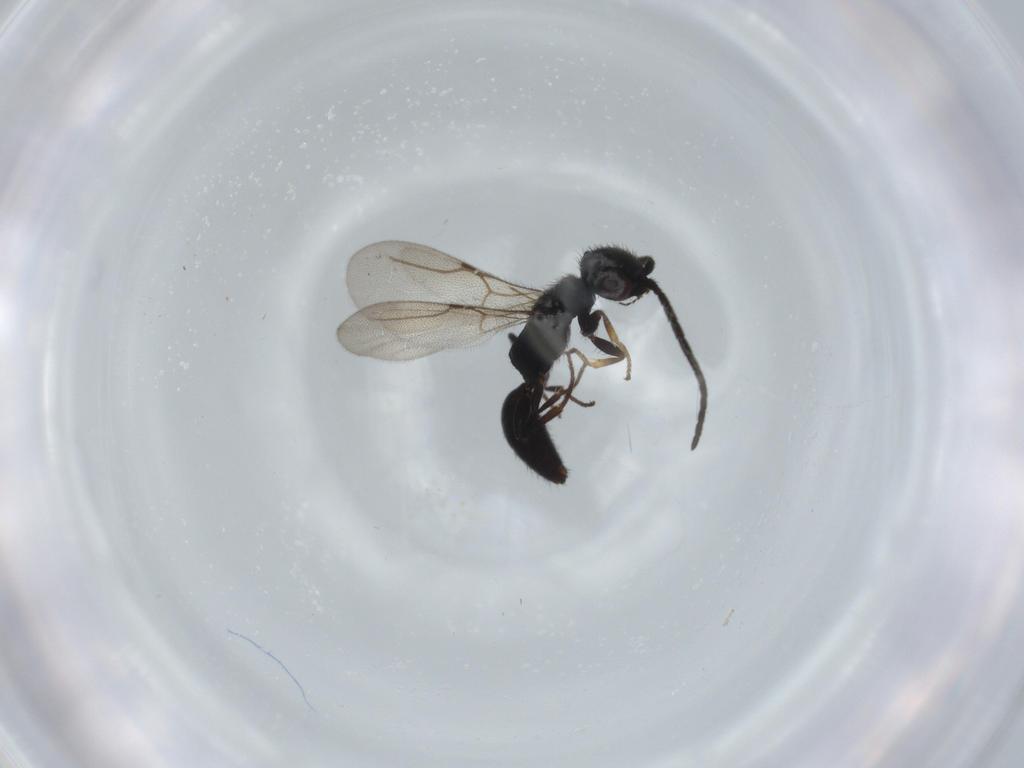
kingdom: Animalia
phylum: Arthropoda
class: Insecta
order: Hymenoptera
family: Bethylidae
